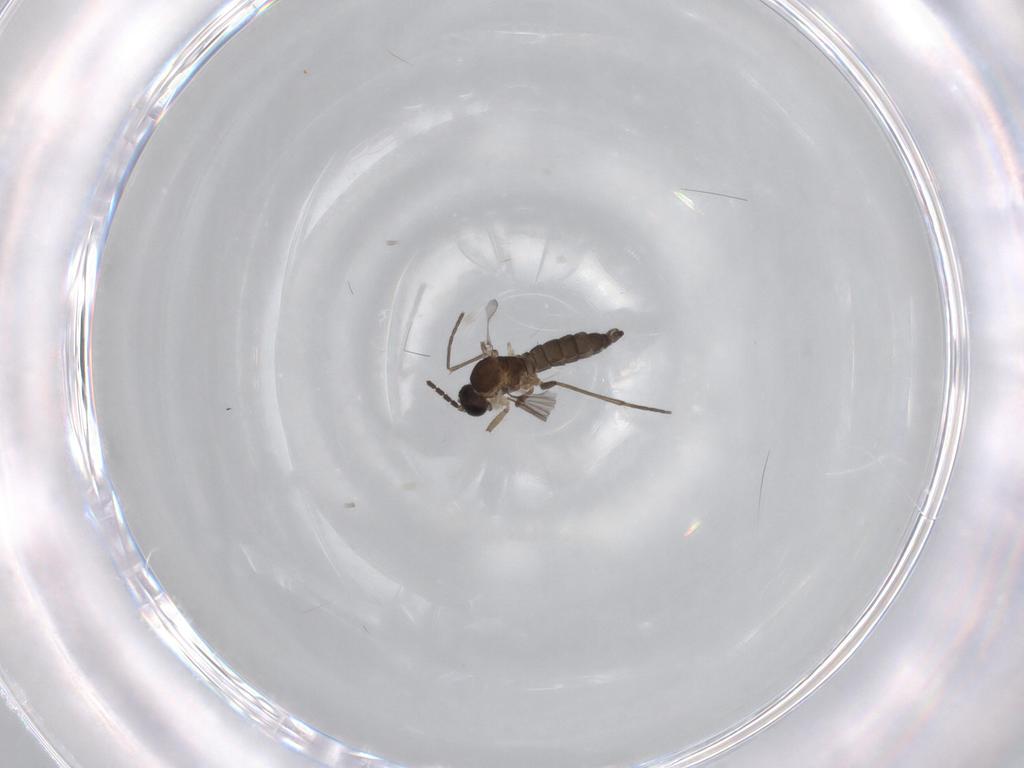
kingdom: Animalia
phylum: Arthropoda
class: Insecta
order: Diptera
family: Sciaridae
